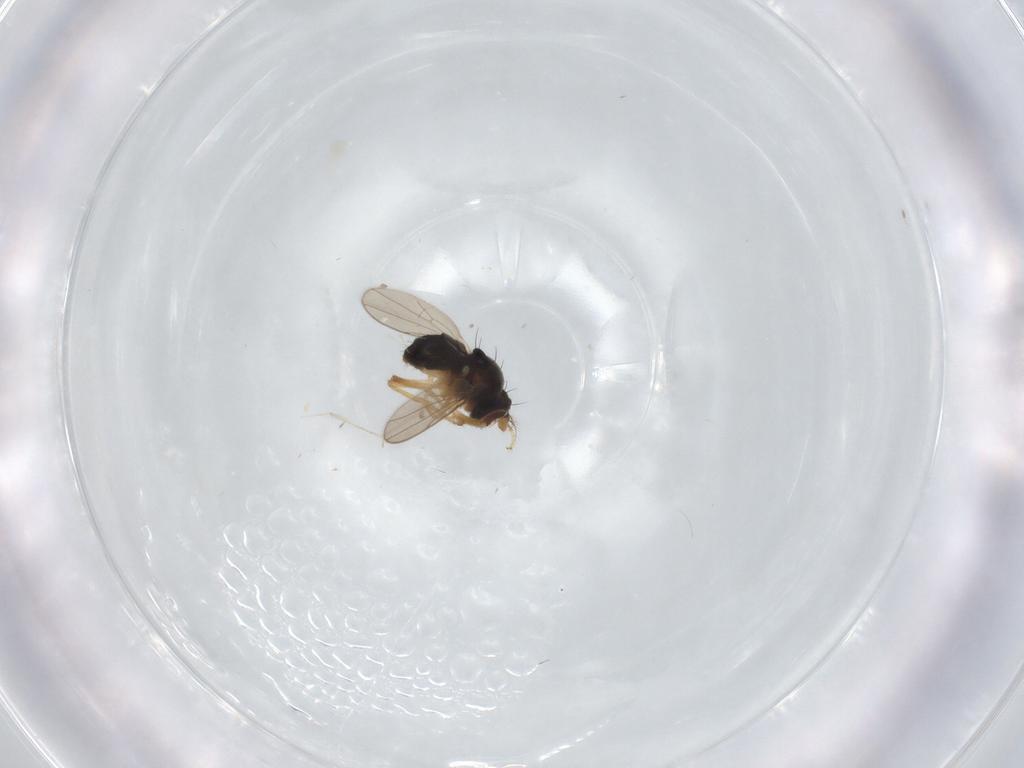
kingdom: Animalia
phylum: Arthropoda
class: Insecta
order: Diptera
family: Ephydridae
